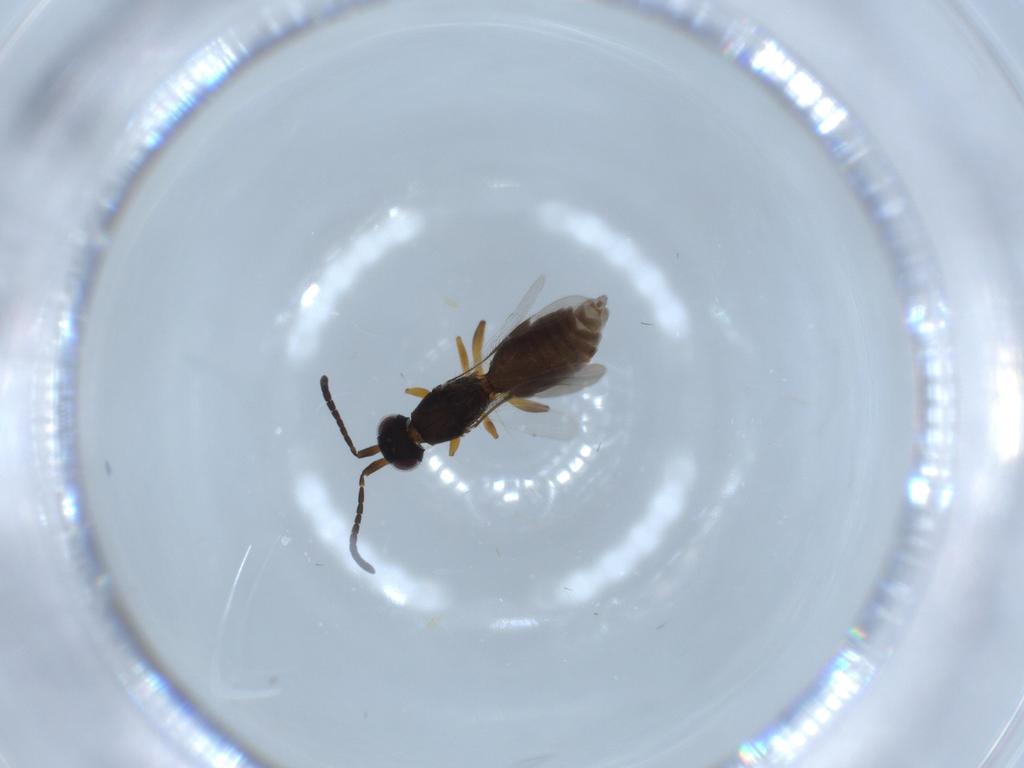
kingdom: Animalia
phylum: Arthropoda
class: Insecta
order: Hymenoptera
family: Megaspilidae
